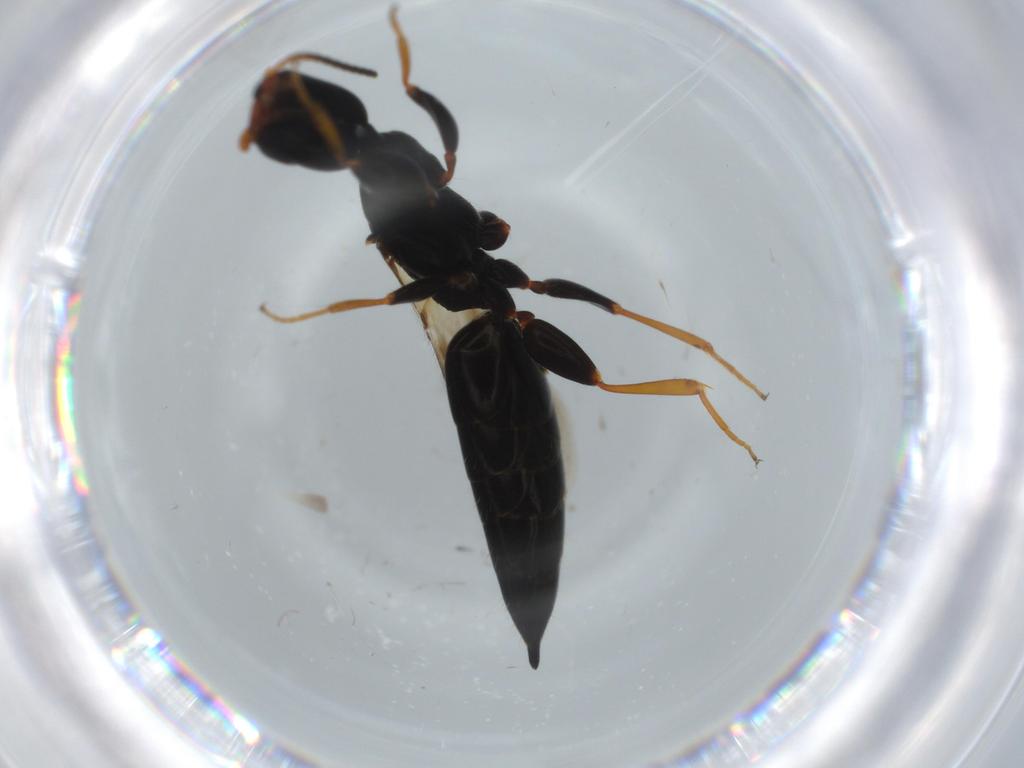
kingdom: Animalia
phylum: Arthropoda
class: Insecta
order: Hymenoptera
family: Bethylidae
